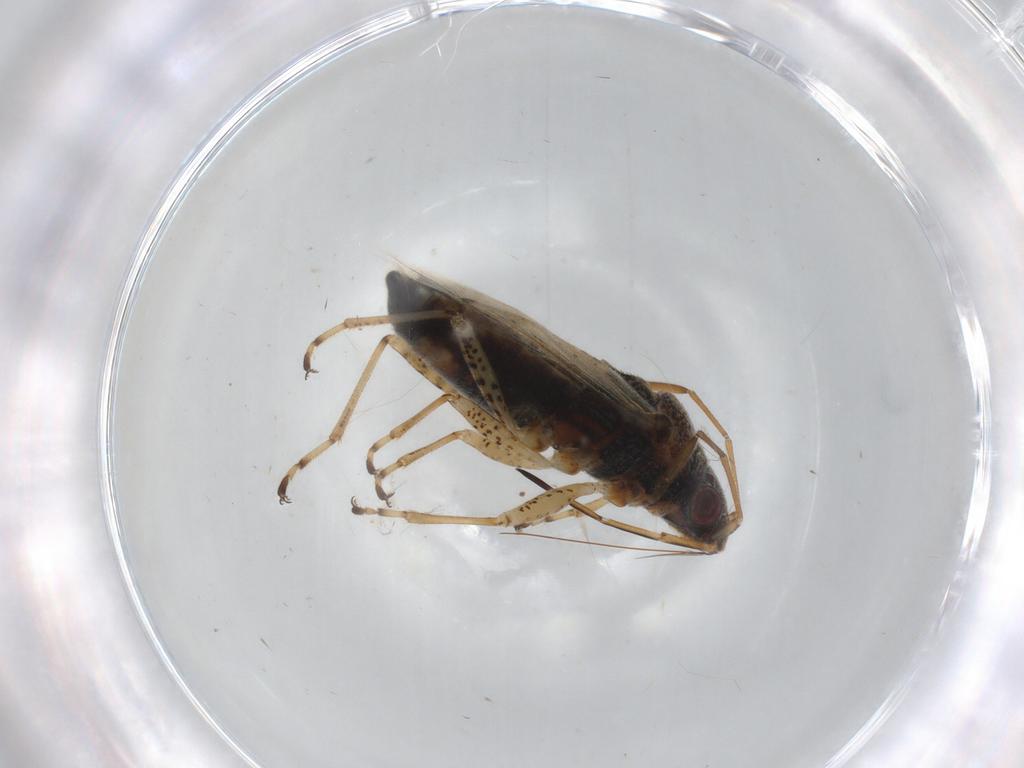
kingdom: Animalia
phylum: Arthropoda
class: Insecta
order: Hemiptera
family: Lygaeidae
